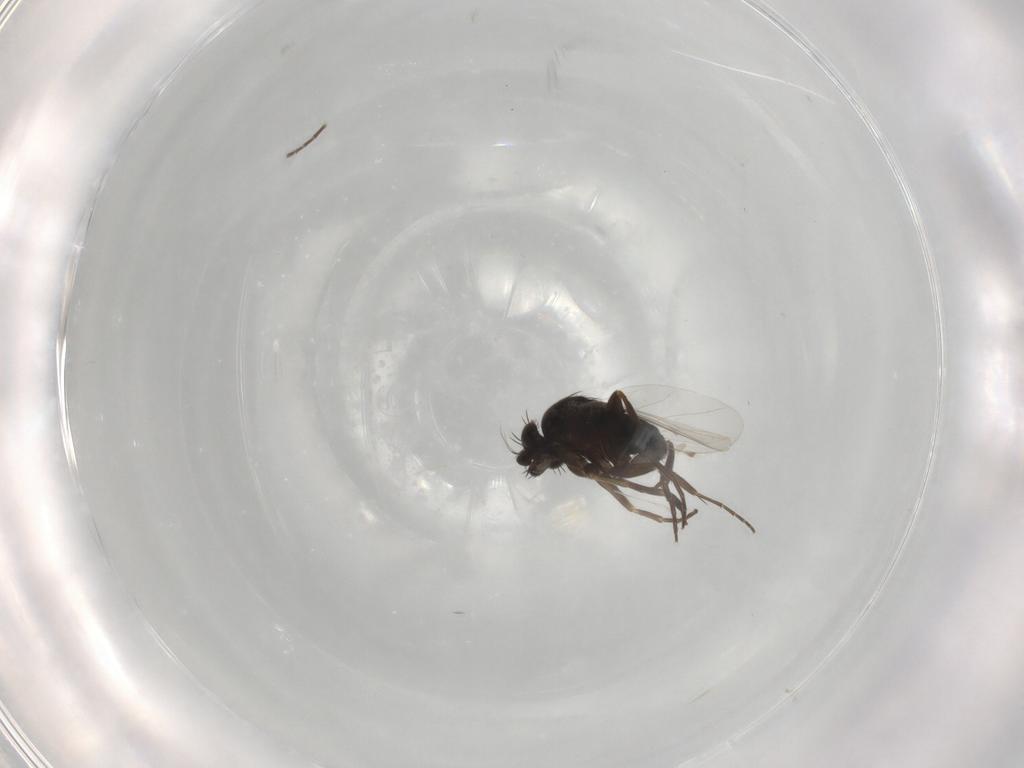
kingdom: Animalia
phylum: Arthropoda
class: Insecta
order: Diptera
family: Phoridae
